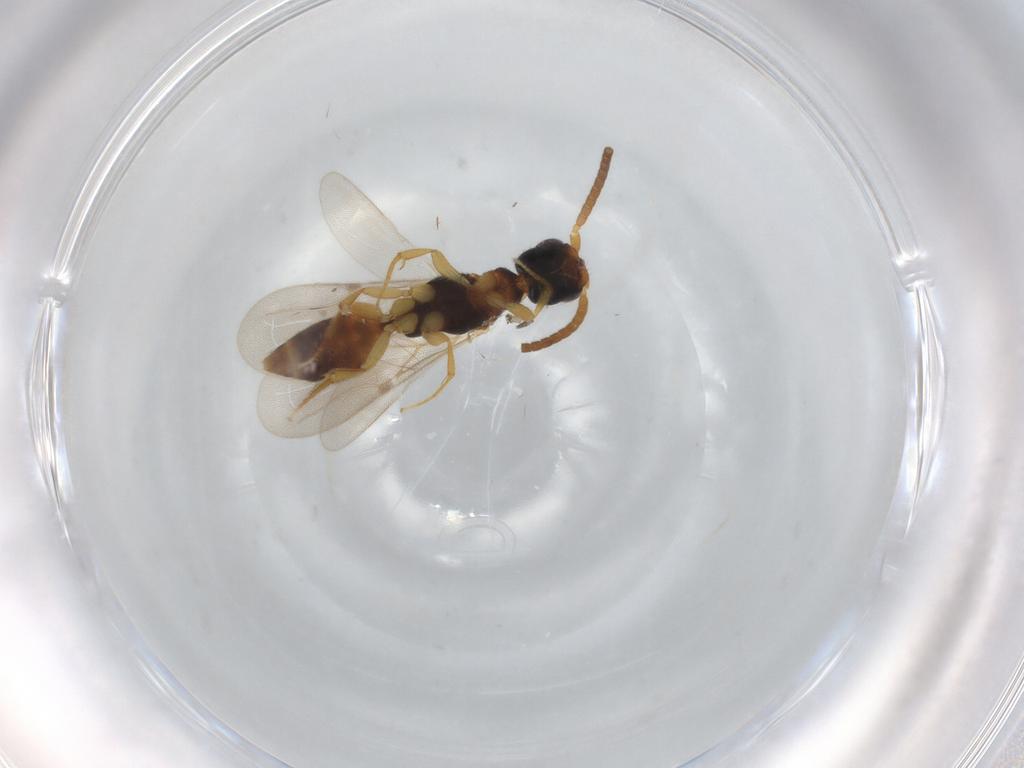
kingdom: Animalia
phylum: Arthropoda
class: Insecta
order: Hymenoptera
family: Bethylidae
